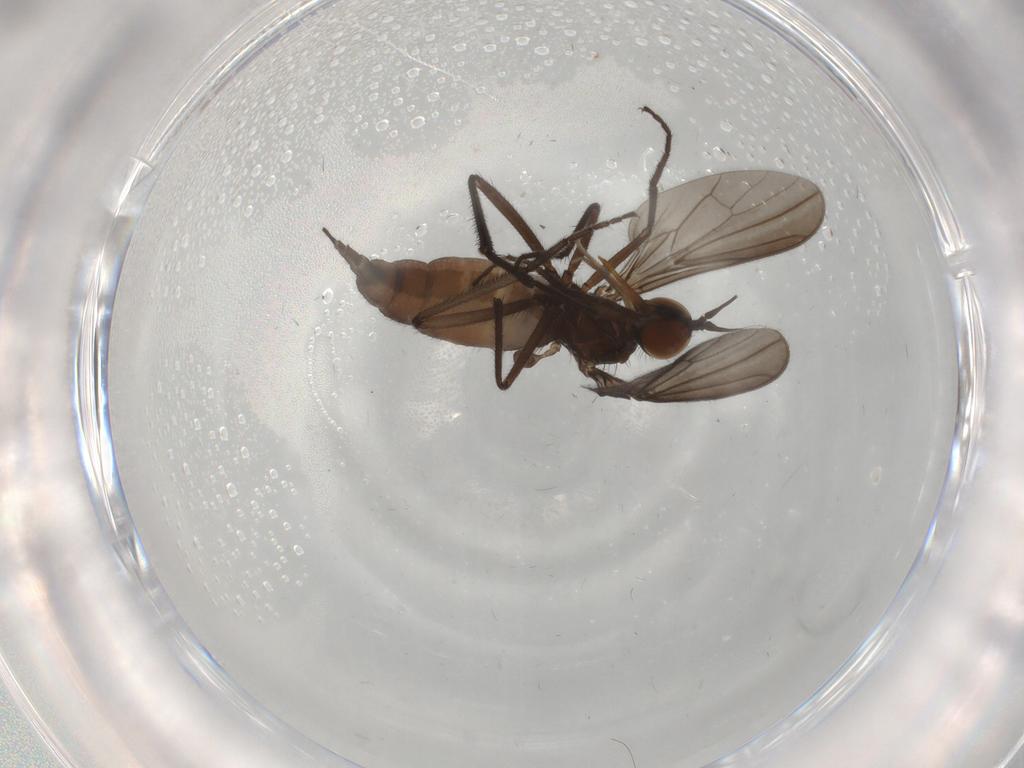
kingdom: Animalia
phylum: Arthropoda
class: Insecta
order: Diptera
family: Empididae
